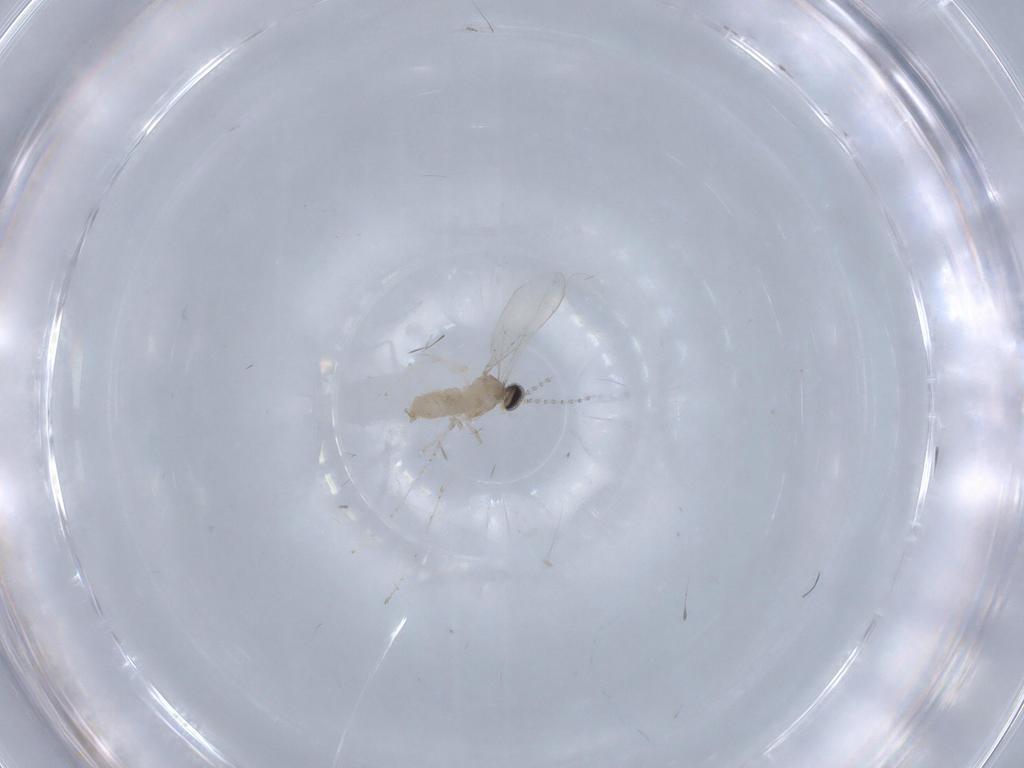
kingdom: Animalia
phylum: Arthropoda
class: Insecta
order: Diptera
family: Cecidomyiidae
